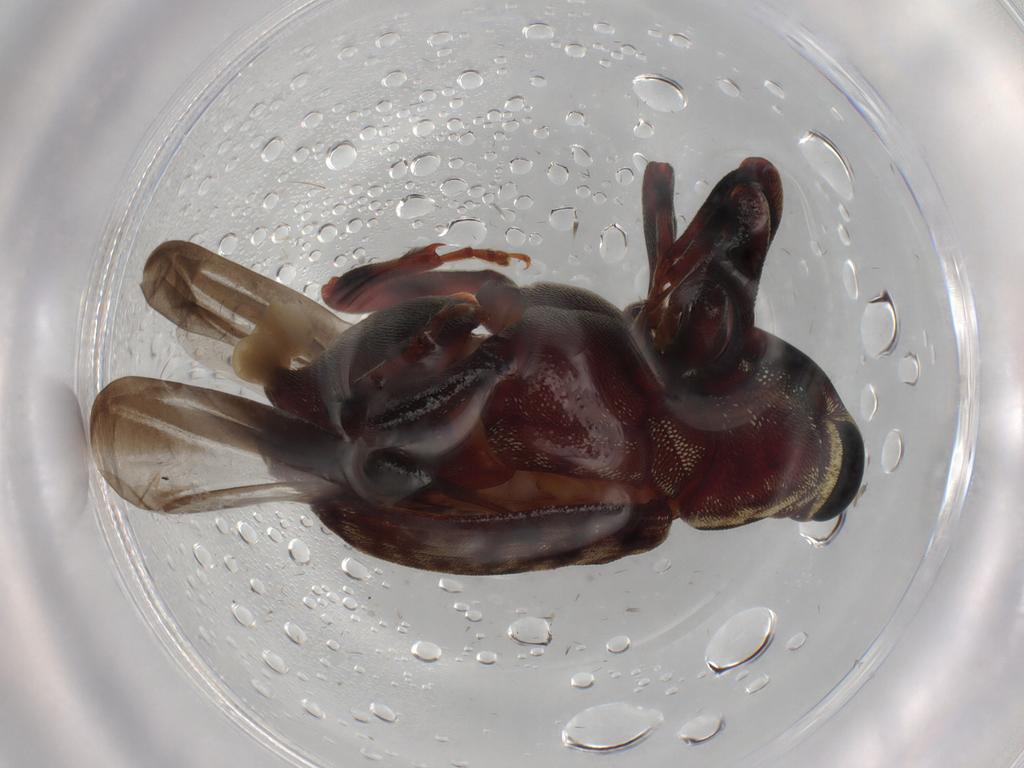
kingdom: Animalia
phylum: Arthropoda
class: Insecta
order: Coleoptera
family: Curculionidae
